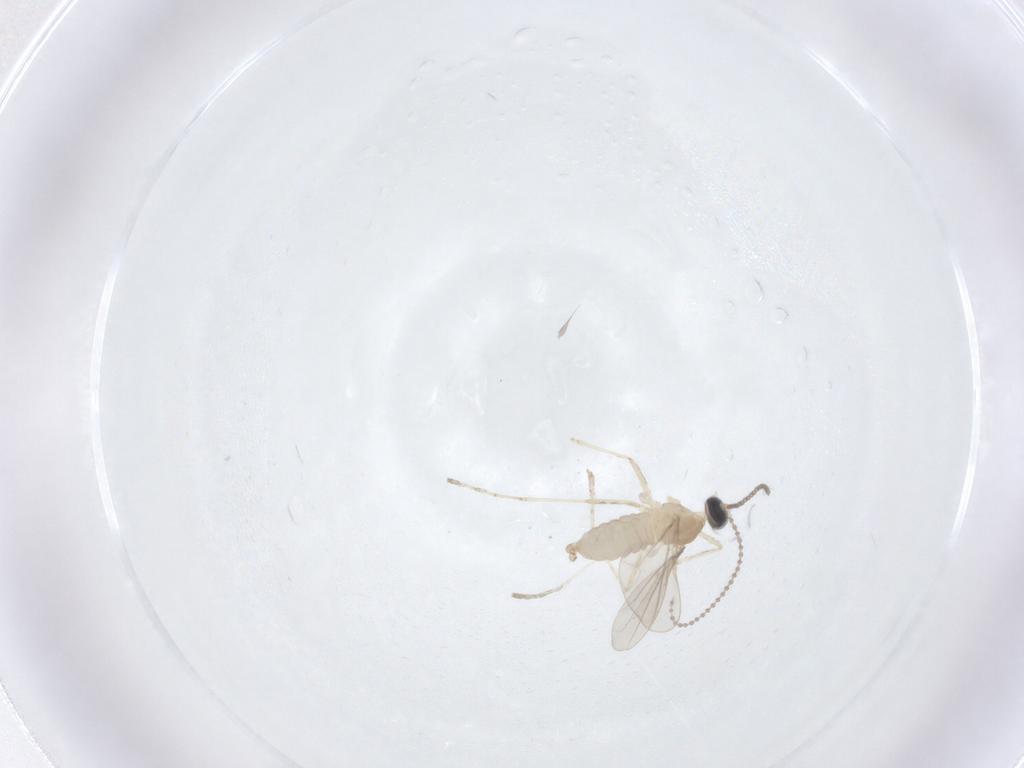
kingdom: Animalia
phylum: Arthropoda
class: Insecta
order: Diptera
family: Cecidomyiidae
